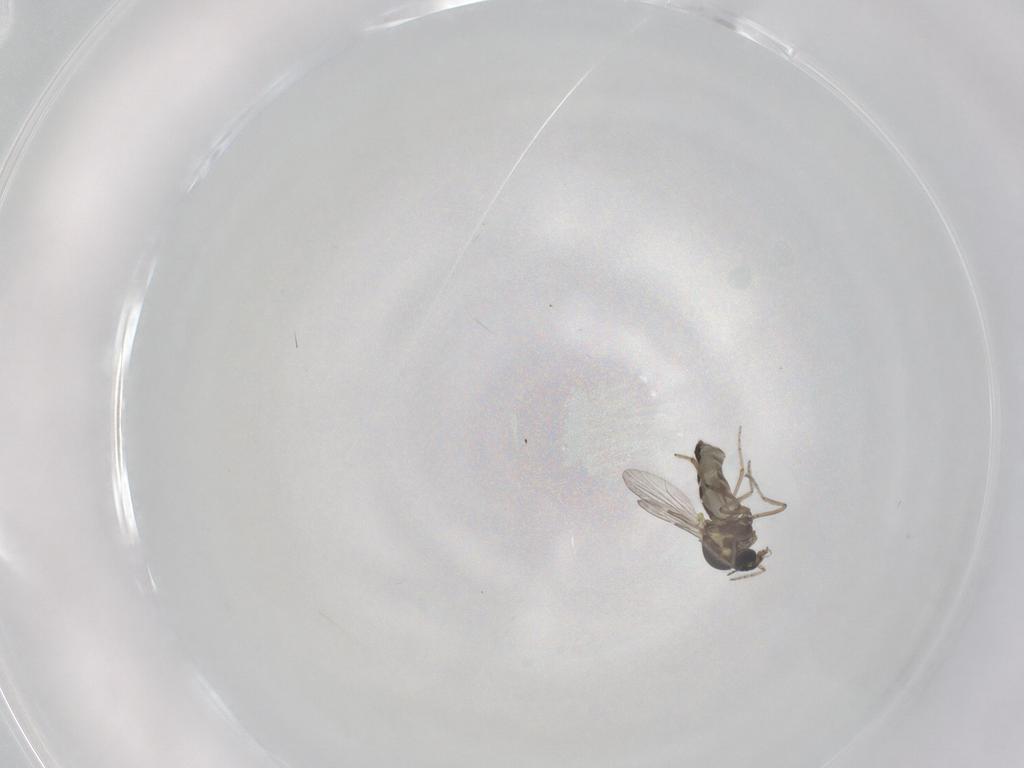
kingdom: Animalia
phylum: Arthropoda
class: Insecta
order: Diptera
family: Ceratopogonidae
